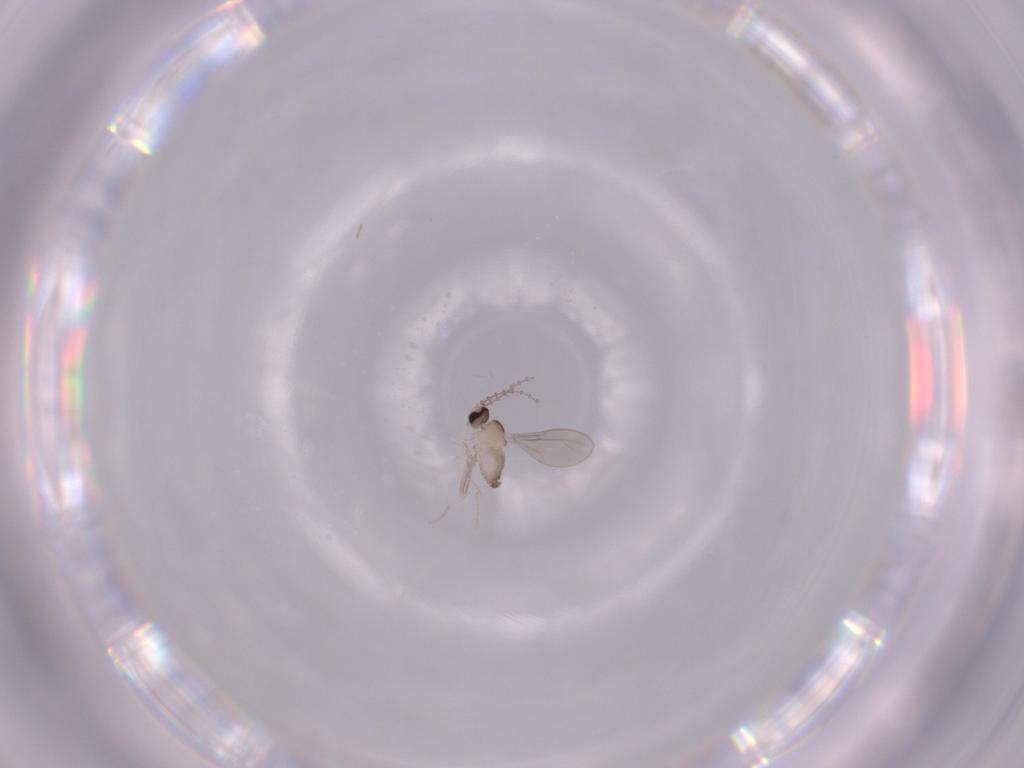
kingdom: Animalia
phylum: Arthropoda
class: Insecta
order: Diptera
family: Cecidomyiidae
